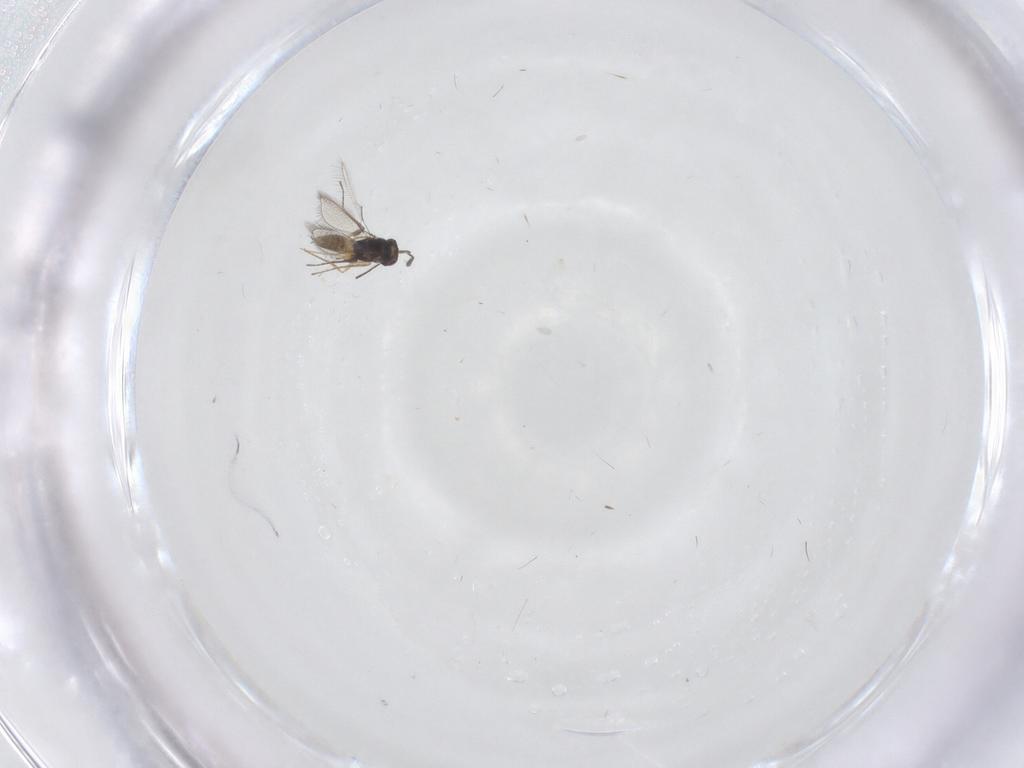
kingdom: Animalia
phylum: Arthropoda
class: Insecta
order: Hymenoptera
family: Mymaridae
